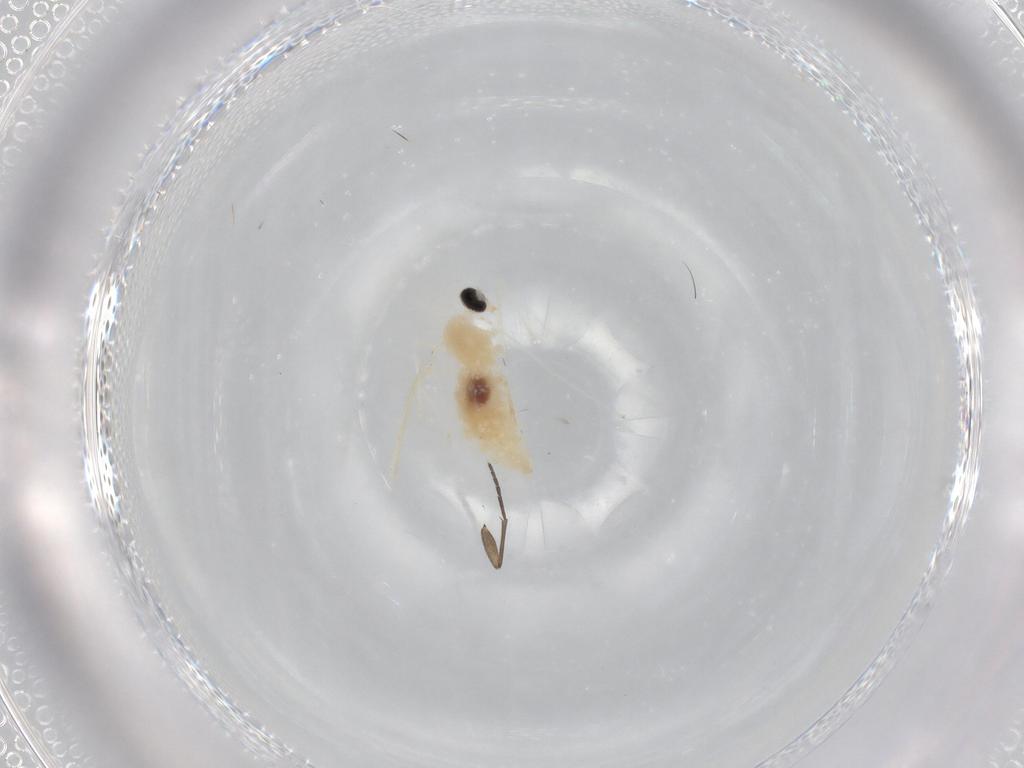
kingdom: Animalia
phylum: Arthropoda
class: Insecta
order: Diptera
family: Cecidomyiidae
